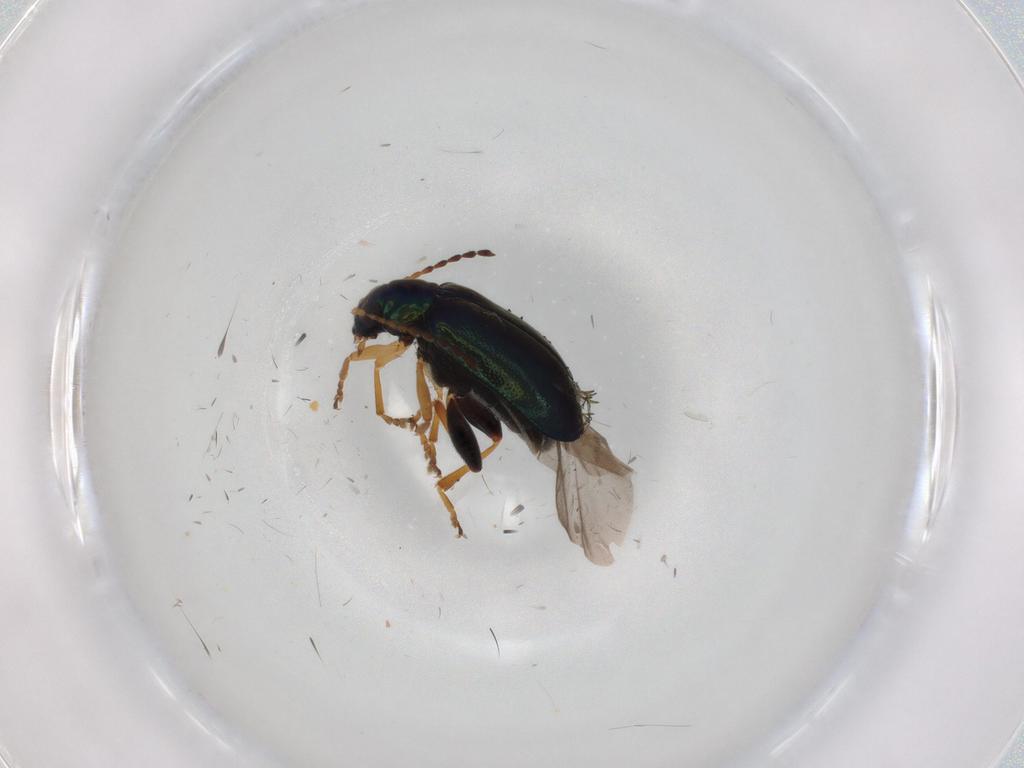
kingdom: Animalia
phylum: Arthropoda
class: Insecta
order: Coleoptera
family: Chrysomelidae
